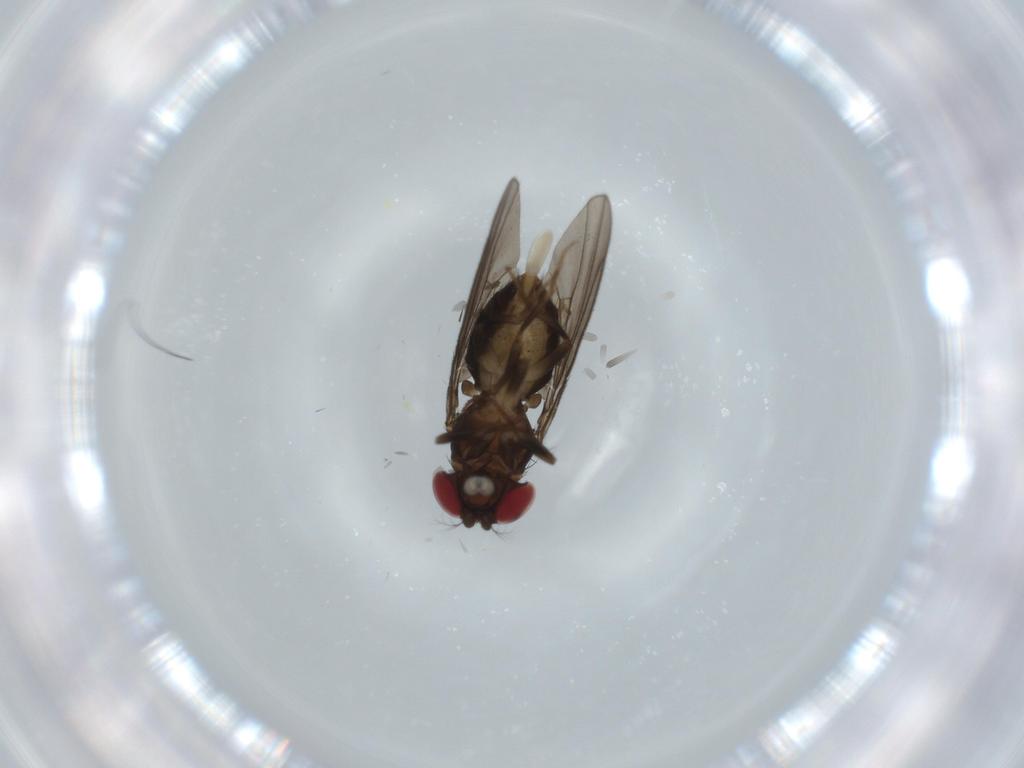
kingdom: Animalia
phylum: Arthropoda
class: Insecta
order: Diptera
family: Drosophilidae
